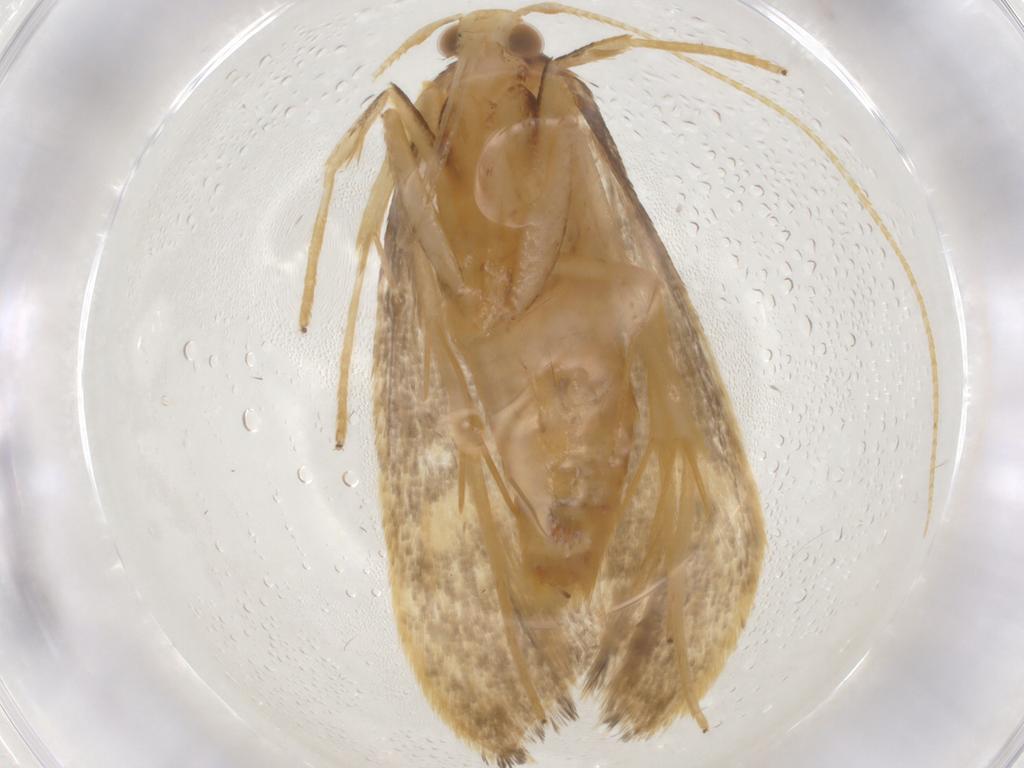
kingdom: Animalia
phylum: Arthropoda
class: Insecta
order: Lepidoptera
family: Lecithoceridae
